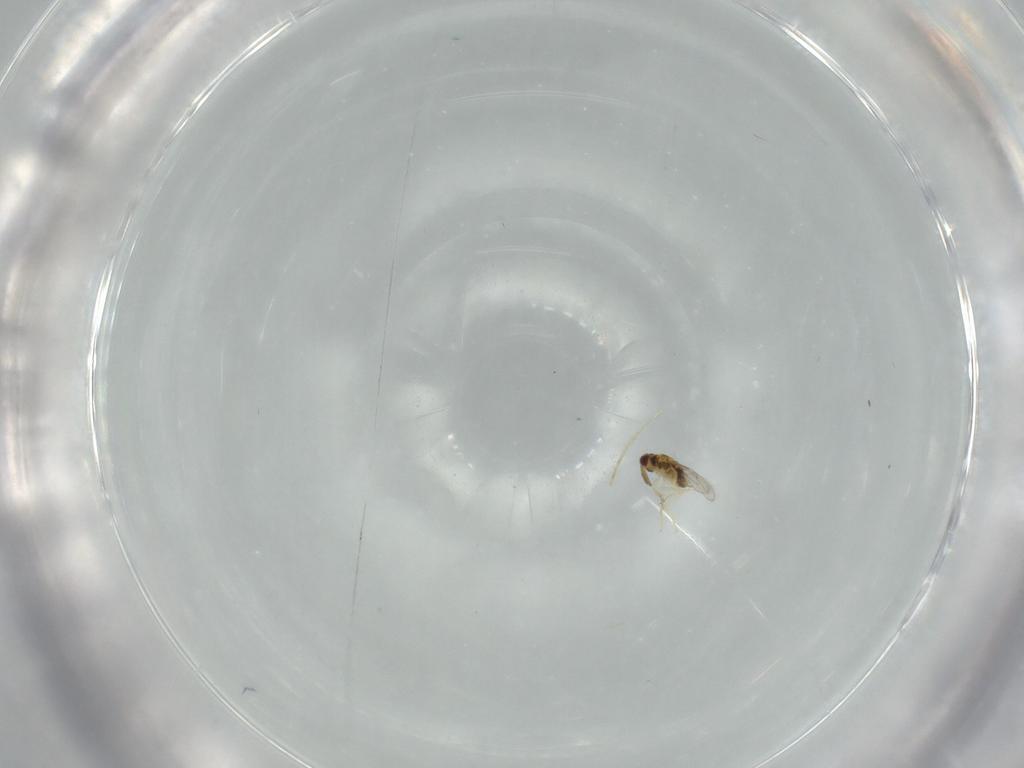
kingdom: Animalia
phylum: Arthropoda
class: Insecta
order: Hymenoptera
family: Aphelinidae
